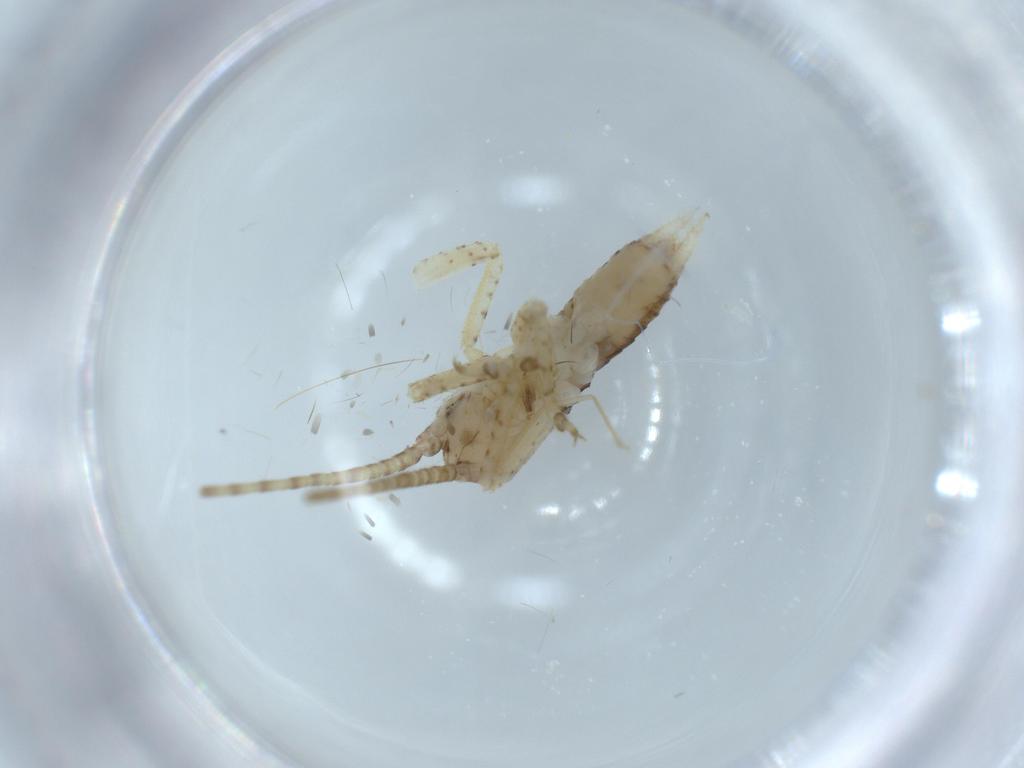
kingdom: Animalia
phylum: Arthropoda
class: Insecta
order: Orthoptera
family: Gryllidae
